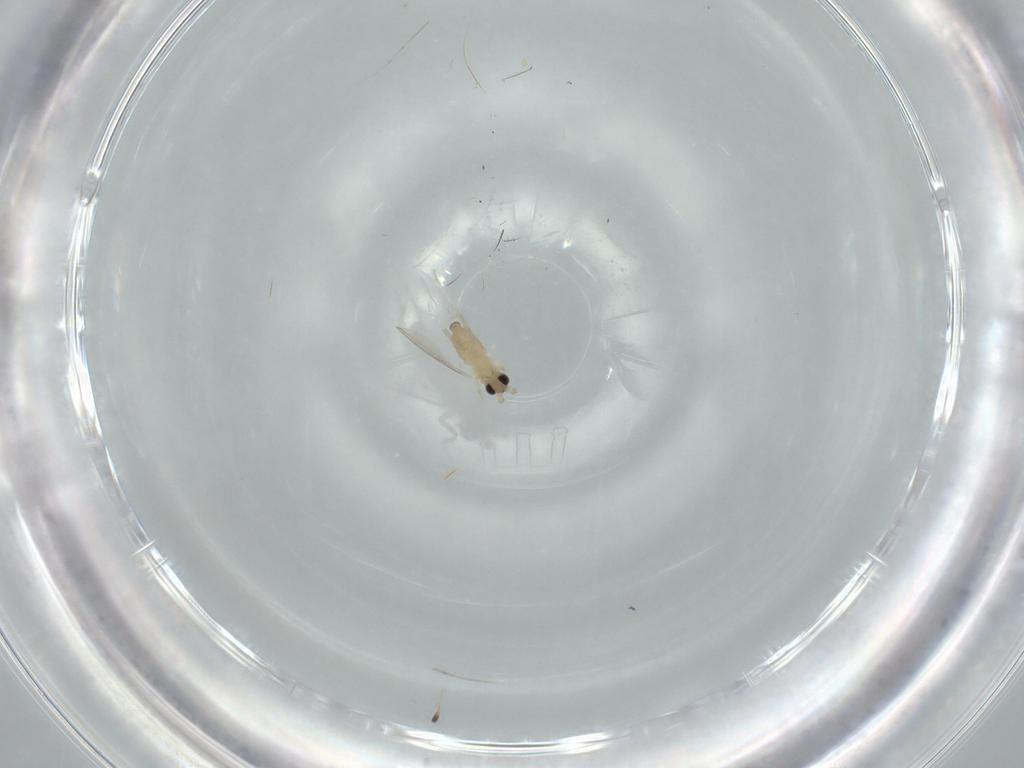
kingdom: Animalia
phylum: Arthropoda
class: Insecta
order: Diptera
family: Cecidomyiidae
